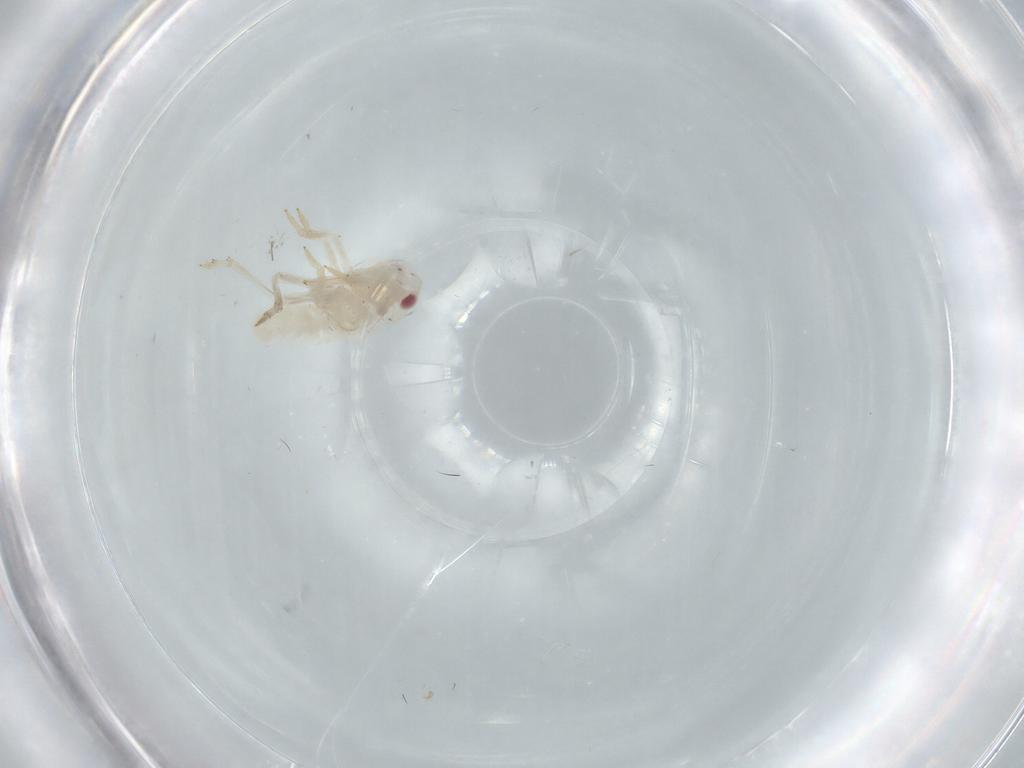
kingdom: Animalia
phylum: Arthropoda
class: Insecta
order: Hemiptera
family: Tropiduchidae
